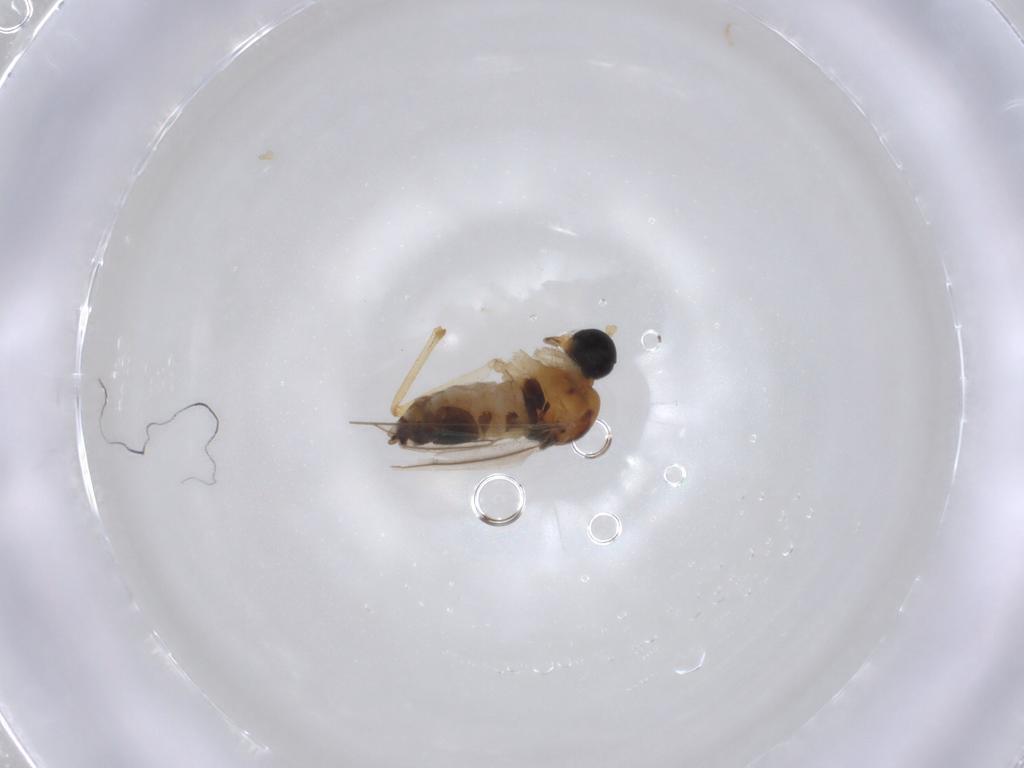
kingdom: Animalia
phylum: Arthropoda
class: Insecta
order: Diptera
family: Hybotidae
